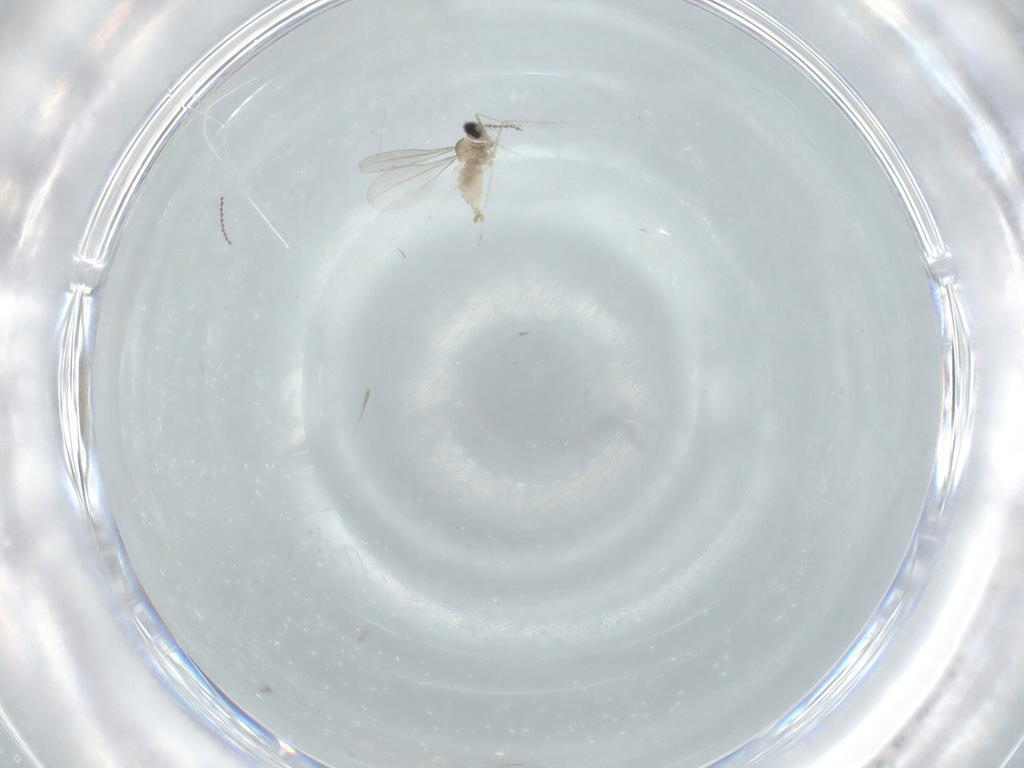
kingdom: Animalia
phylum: Arthropoda
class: Insecta
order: Diptera
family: Cecidomyiidae
